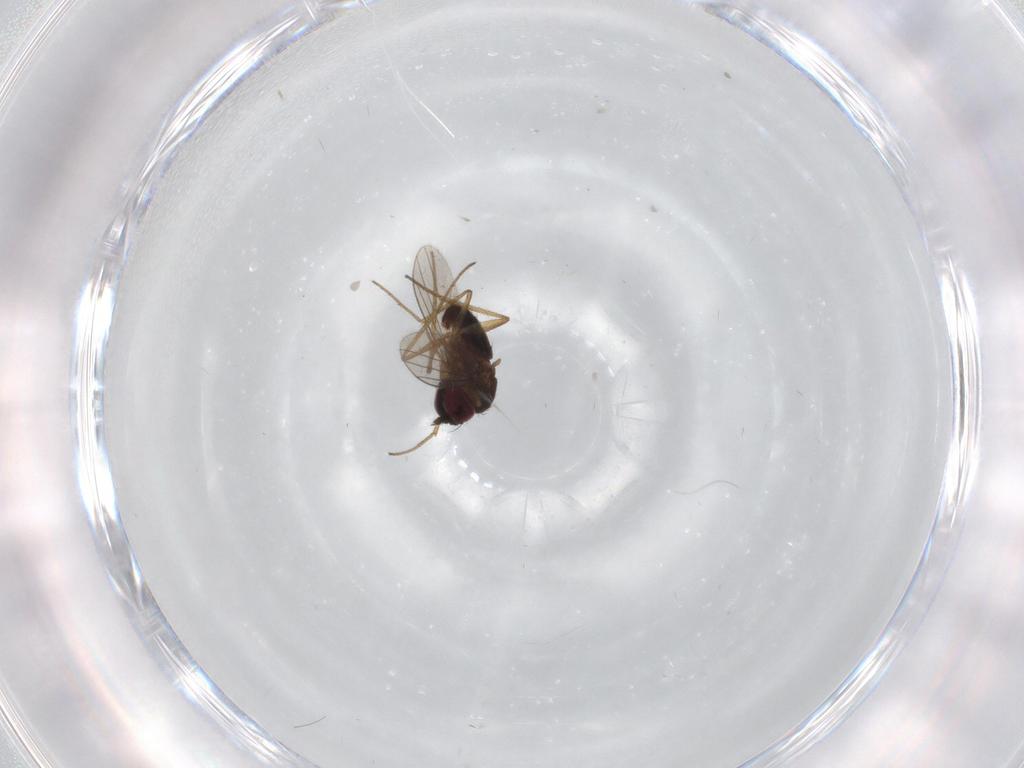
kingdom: Animalia
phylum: Arthropoda
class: Insecta
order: Diptera
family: Dolichopodidae
